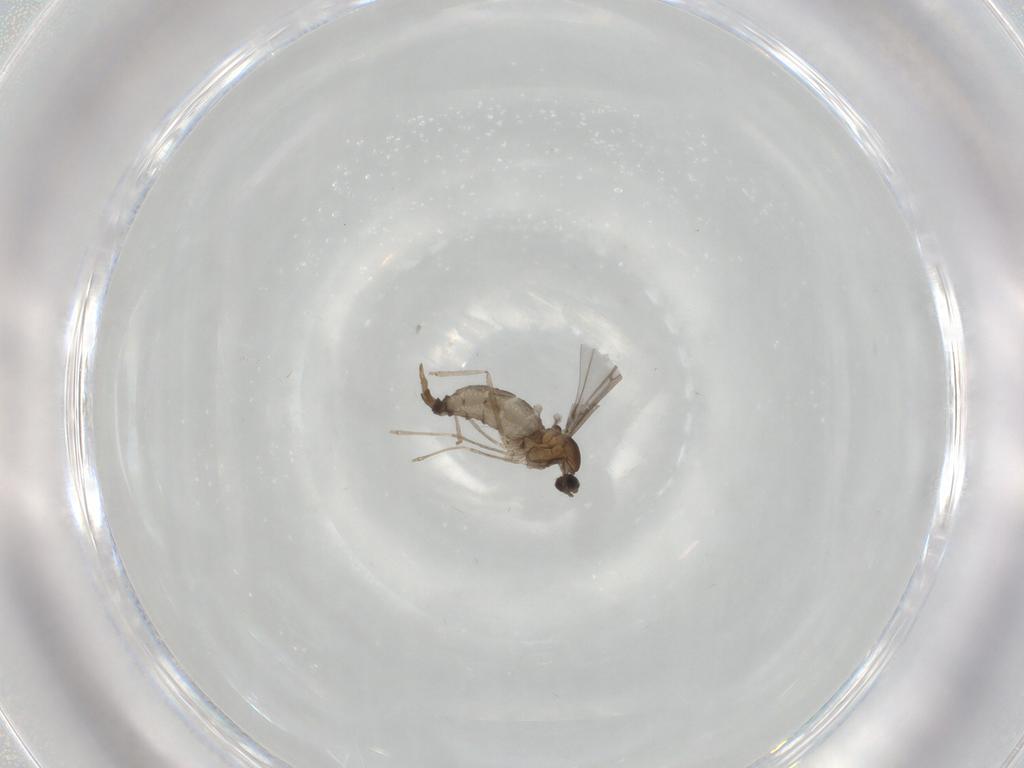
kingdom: Animalia
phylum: Arthropoda
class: Insecta
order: Diptera
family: Cecidomyiidae
